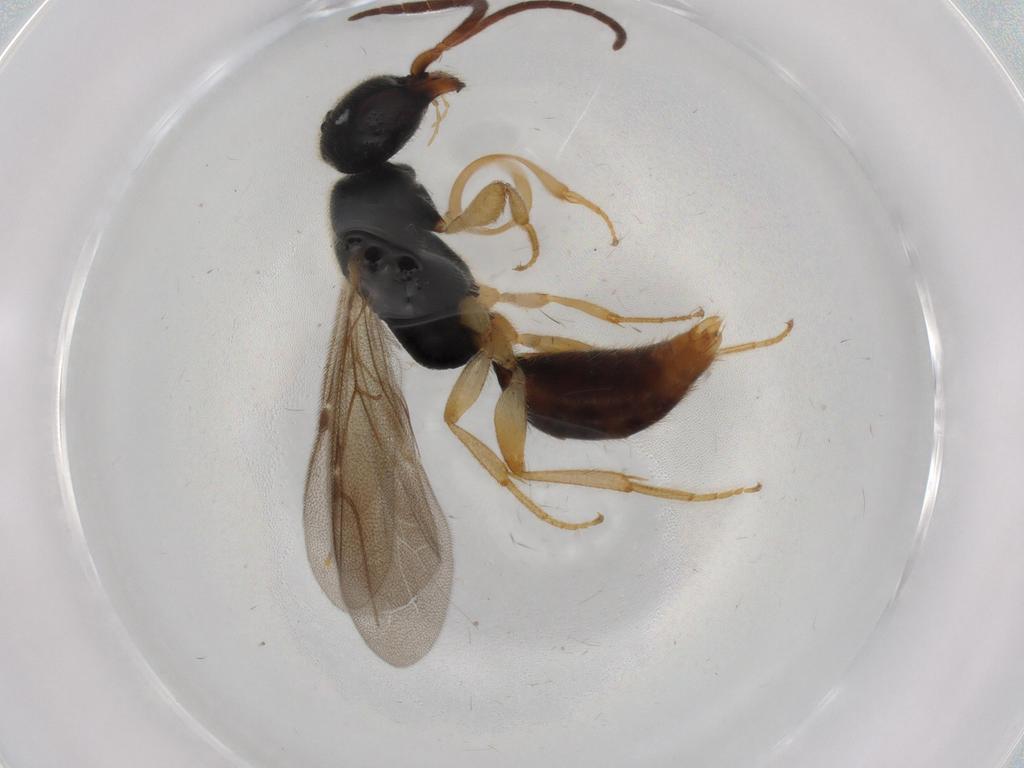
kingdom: Animalia
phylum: Arthropoda
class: Insecta
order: Hymenoptera
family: Bethylidae
